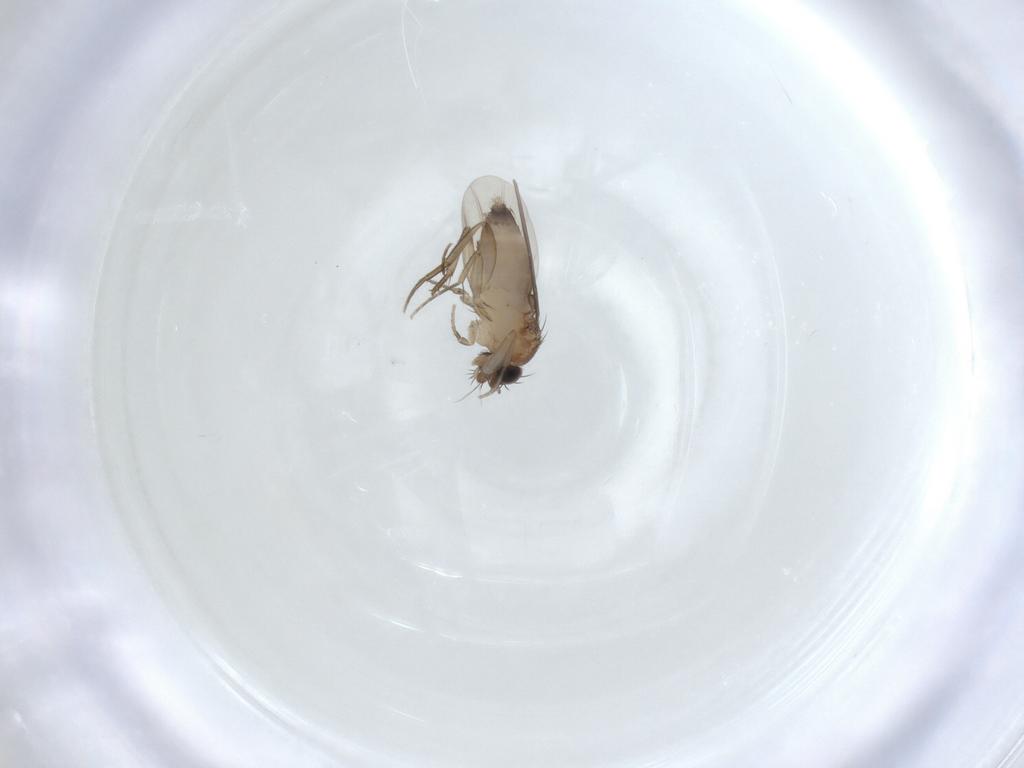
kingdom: Animalia
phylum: Arthropoda
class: Insecta
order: Diptera
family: Phoridae
